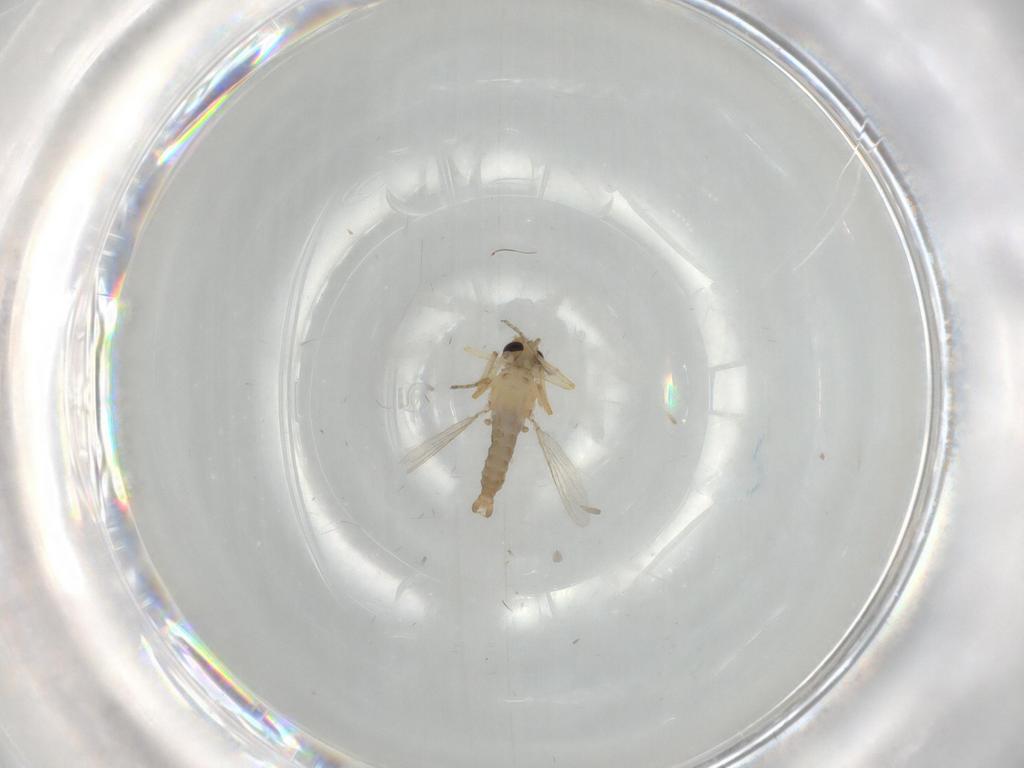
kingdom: Animalia
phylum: Arthropoda
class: Insecta
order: Diptera
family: Ceratopogonidae
